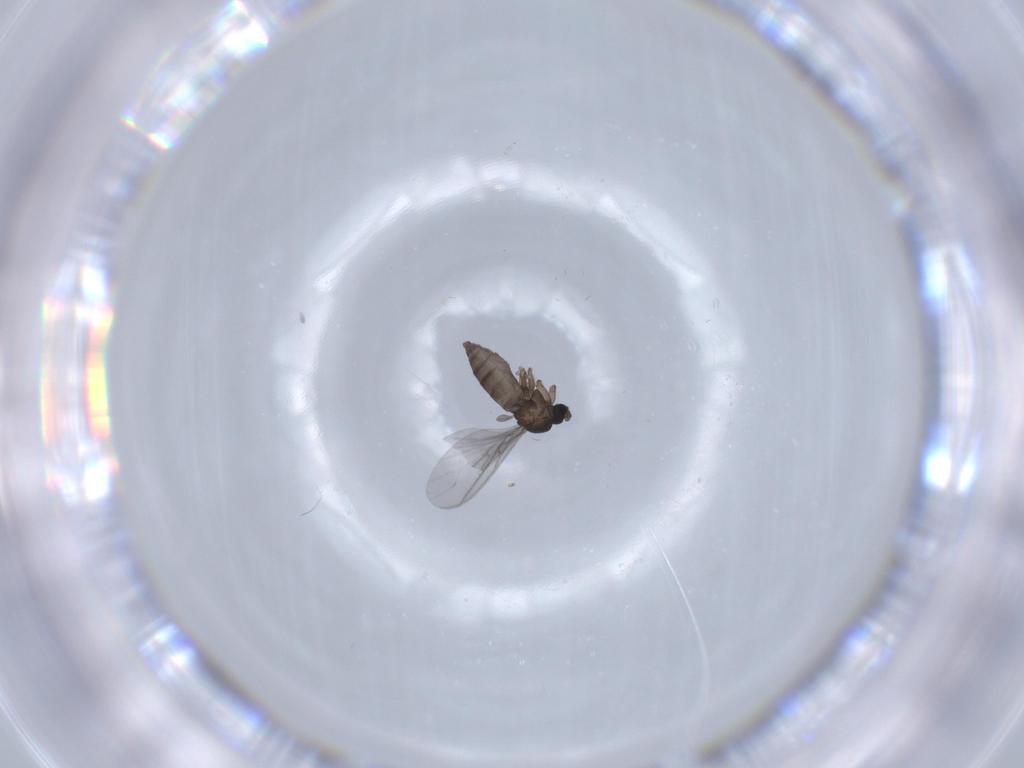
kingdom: Animalia
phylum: Arthropoda
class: Insecta
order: Diptera
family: Sciaridae
